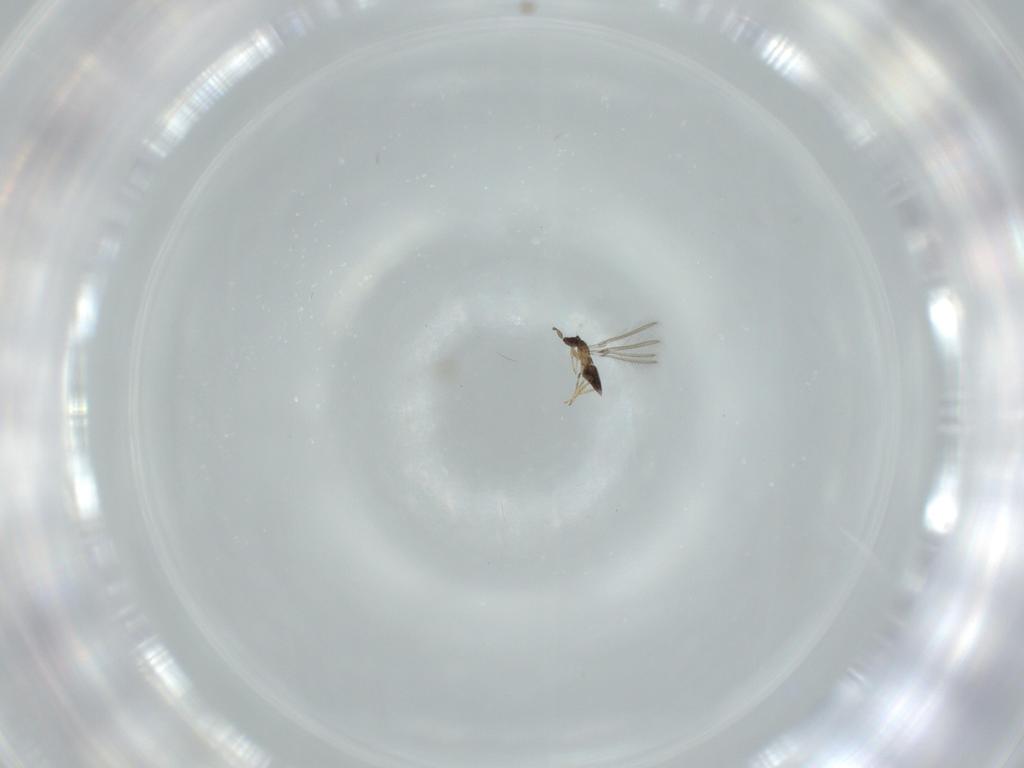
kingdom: Animalia
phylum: Arthropoda
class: Insecta
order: Hymenoptera
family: Mymaridae
